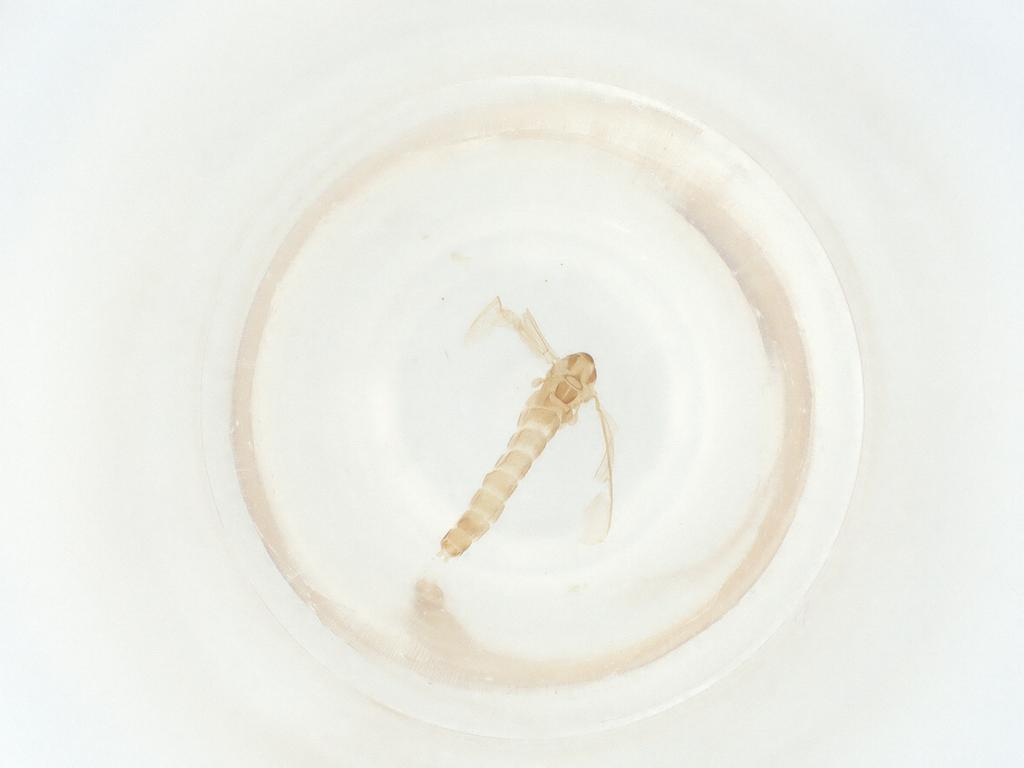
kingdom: Animalia
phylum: Arthropoda
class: Insecta
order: Diptera
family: Chironomidae
